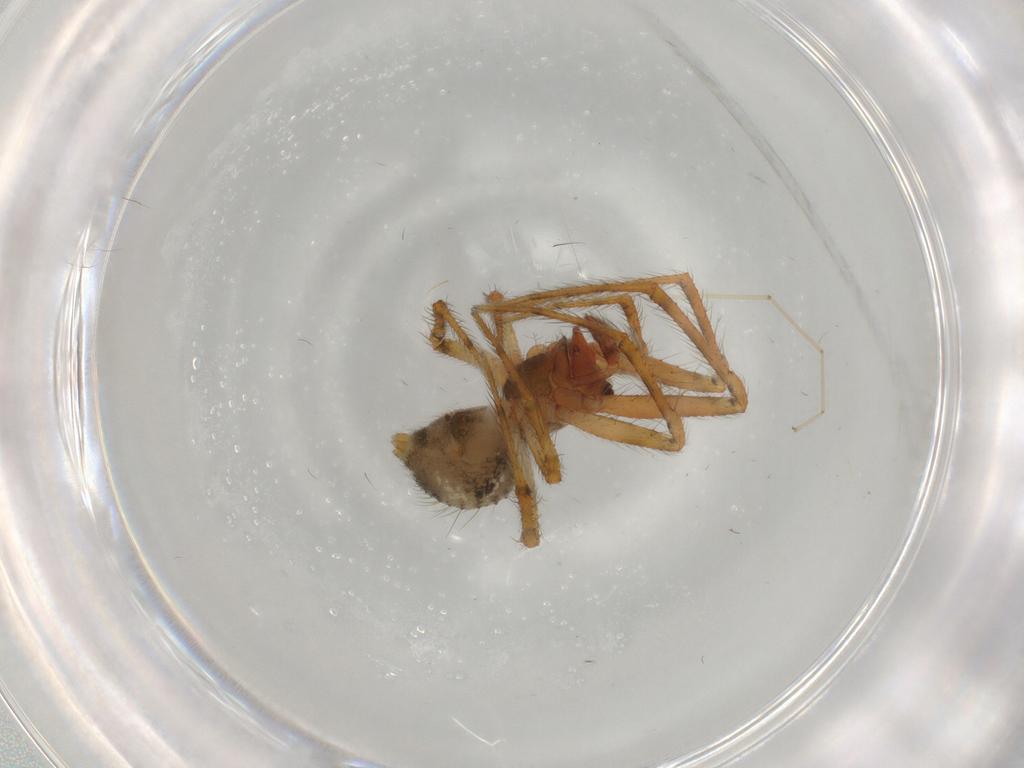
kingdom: Animalia
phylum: Arthropoda
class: Arachnida
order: Araneae
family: Theridiidae
